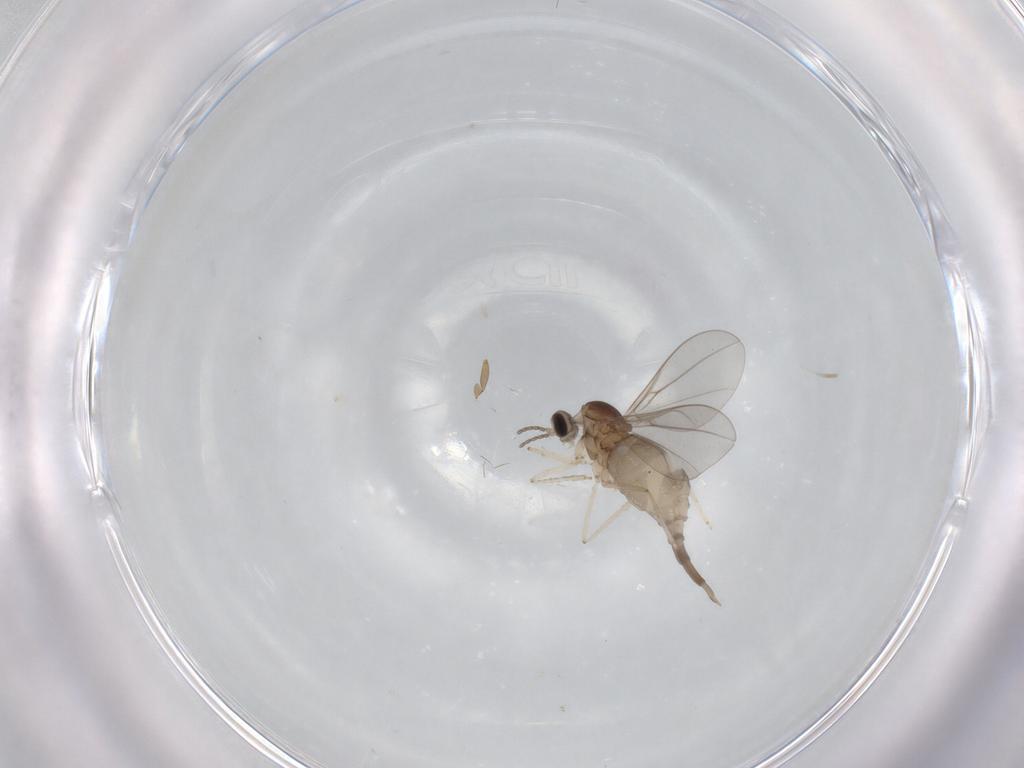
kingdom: Animalia
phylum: Arthropoda
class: Insecta
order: Diptera
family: Cecidomyiidae
